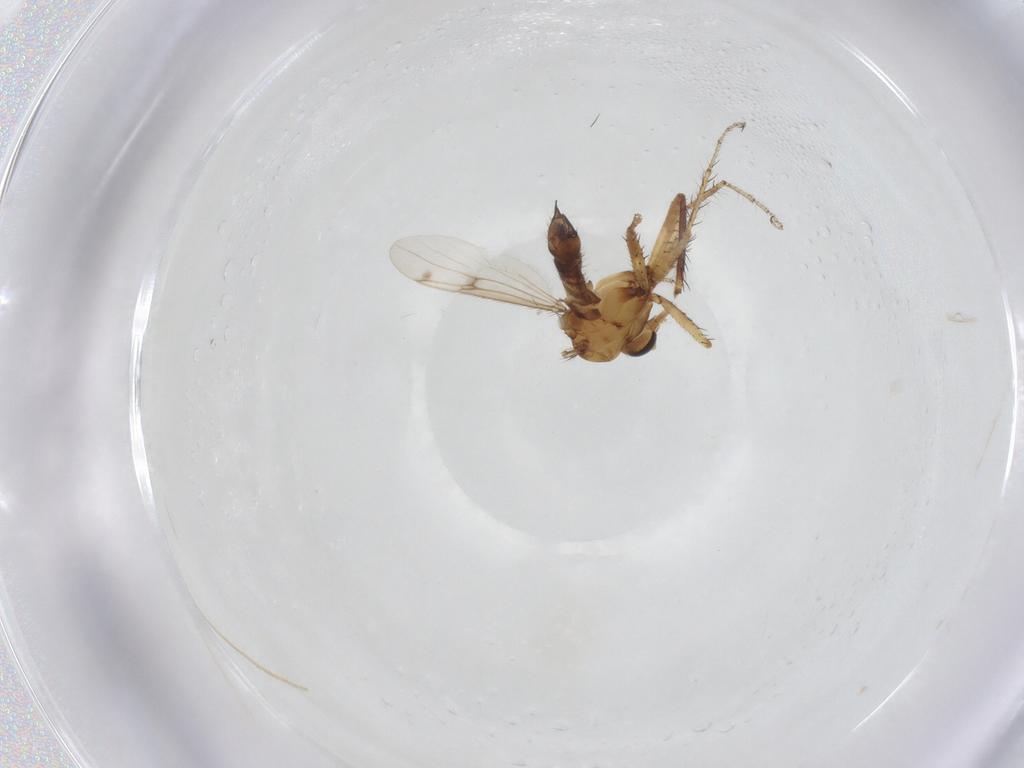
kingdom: Animalia
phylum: Arthropoda
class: Insecta
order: Diptera
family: Ceratopogonidae
